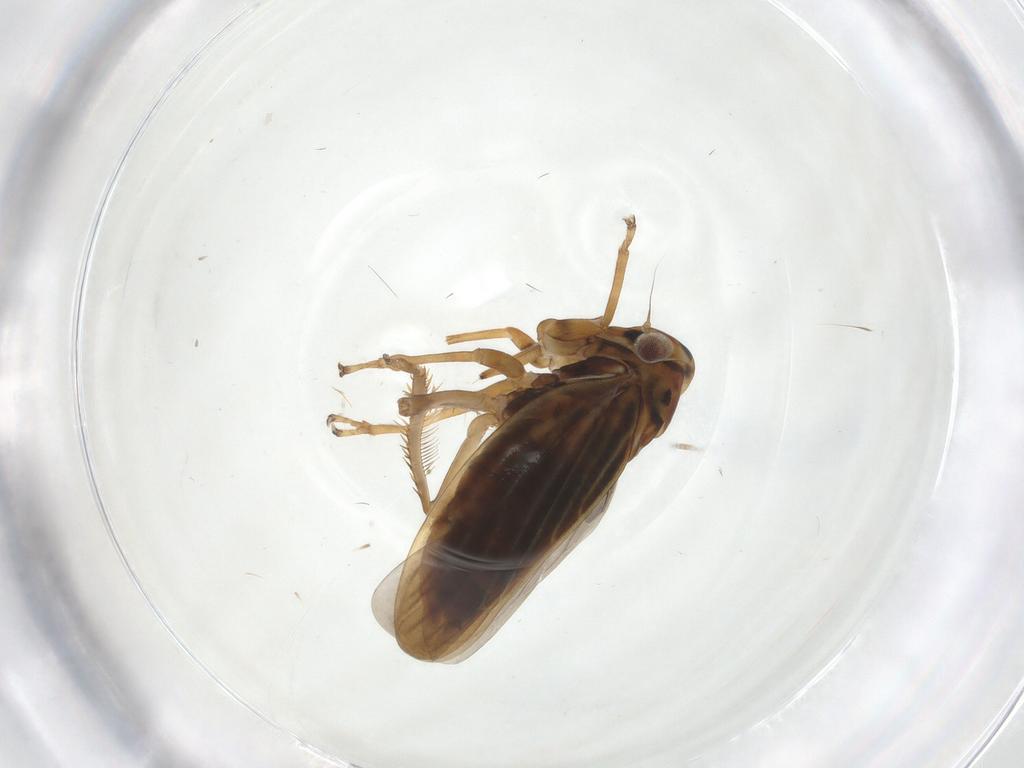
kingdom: Animalia
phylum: Arthropoda
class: Insecta
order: Hemiptera
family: Cicadellidae
